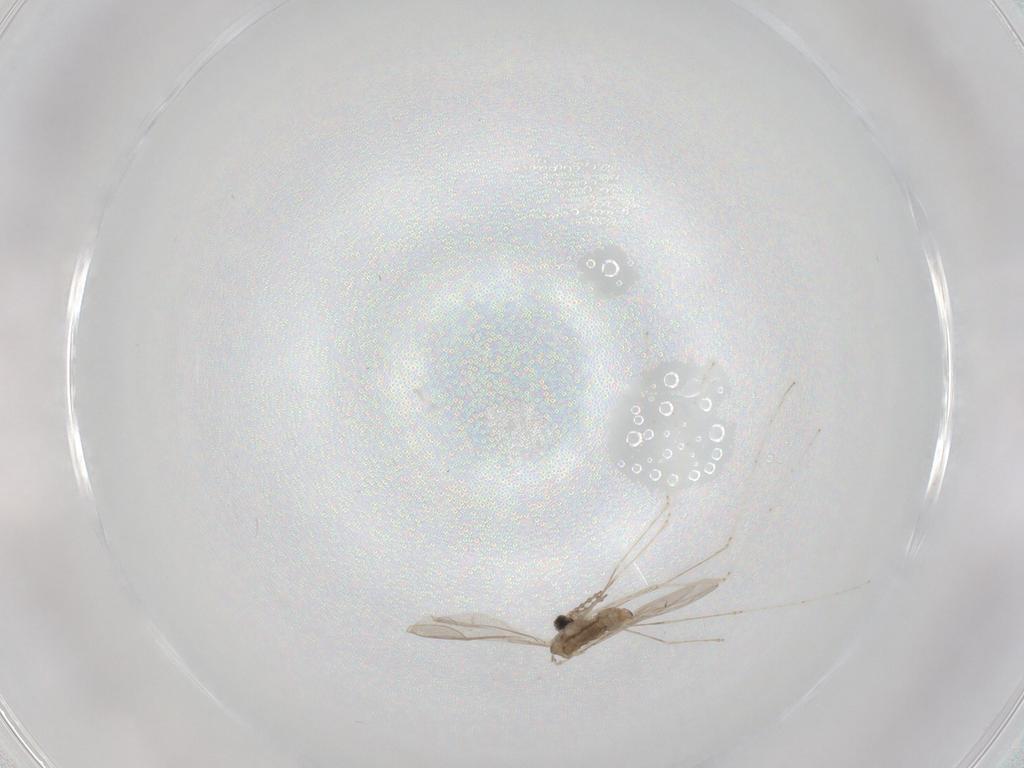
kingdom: Animalia
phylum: Arthropoda
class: Insecta
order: Diptera
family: Cecidomyiidae
